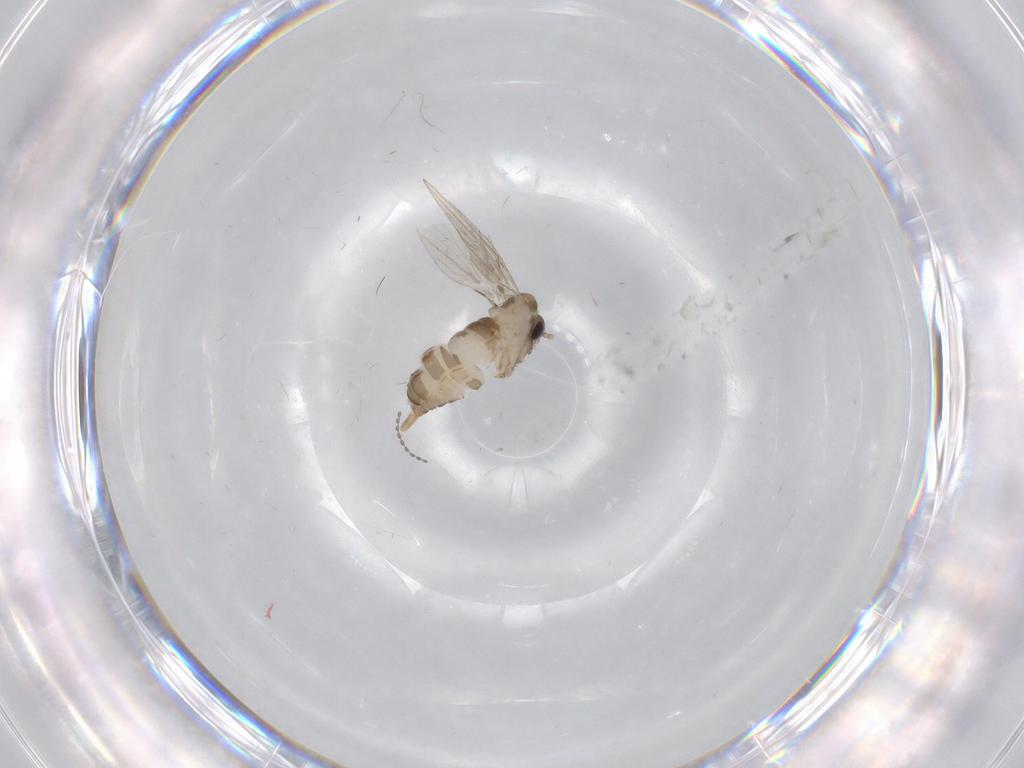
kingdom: Animalia
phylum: Arthropoda
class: Insecta
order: Diptera
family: Psychodidae
